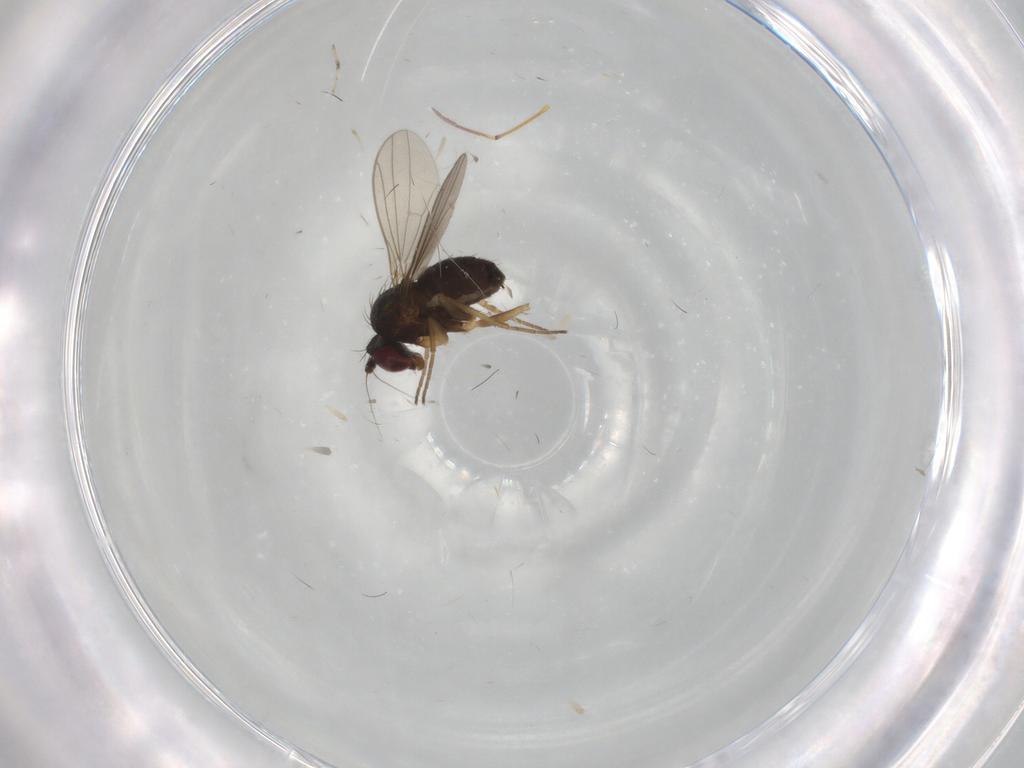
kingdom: Animalia
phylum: Arthropoda
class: Insecta
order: Diptera
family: Dolichopodidae
